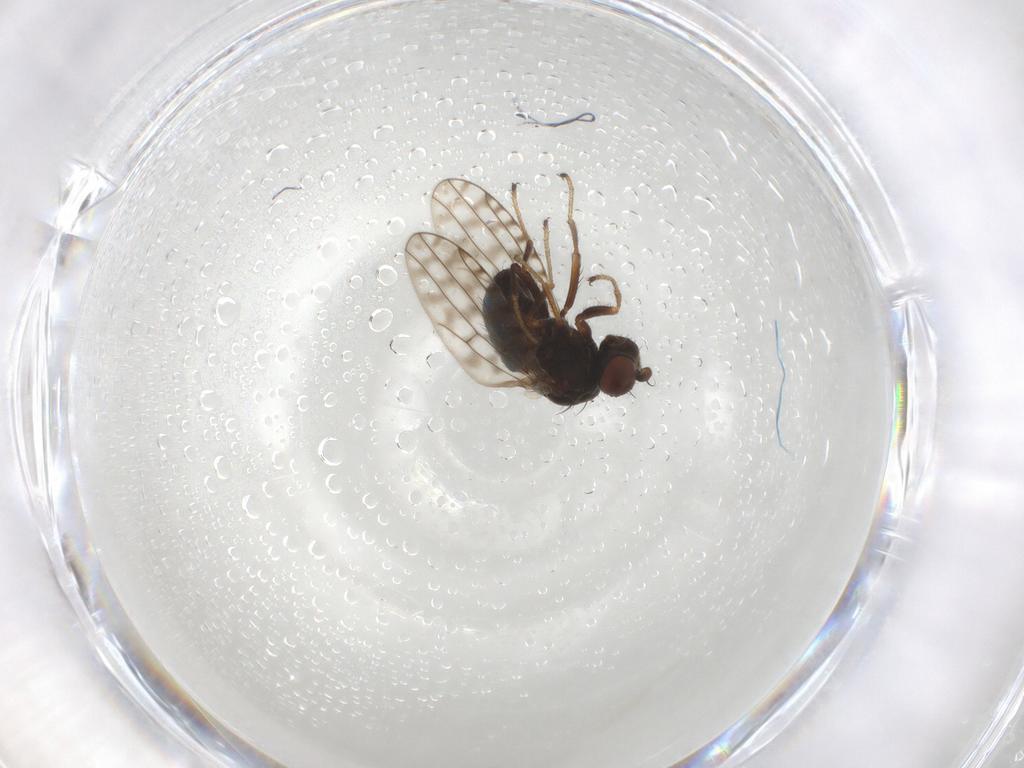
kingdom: Animalia
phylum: Arthropoda
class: Insecta
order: Diptera
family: Ephydridae
